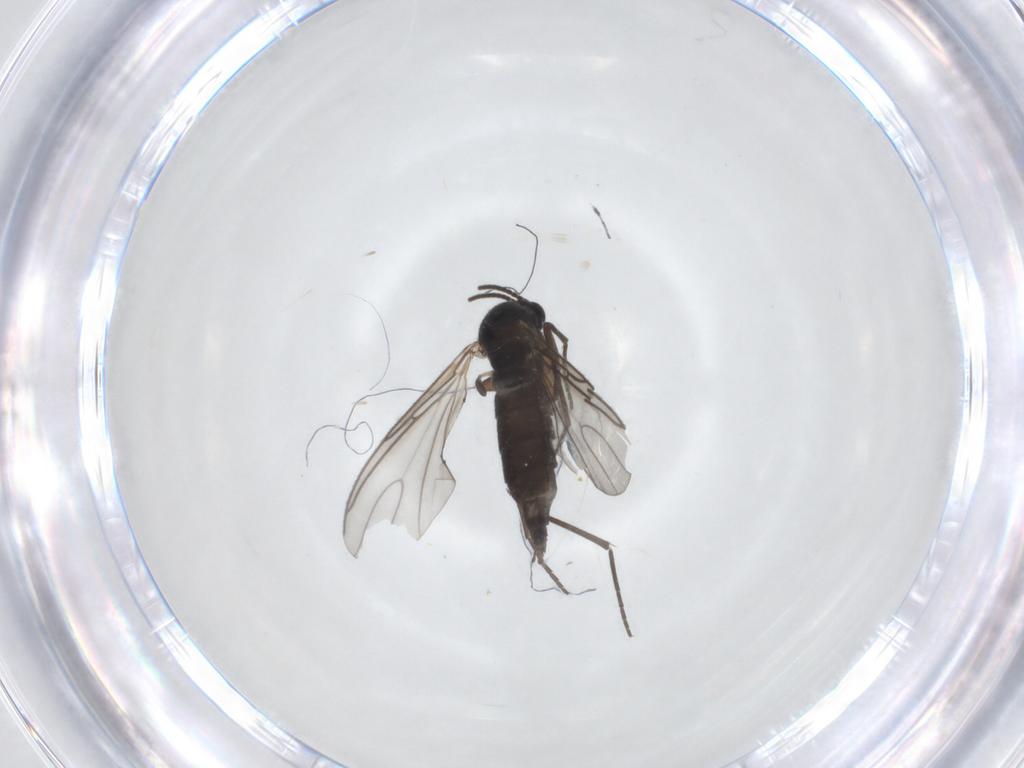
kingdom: Animalia
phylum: Arthropoda
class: Insecta
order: Diptera
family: Sciaridae
